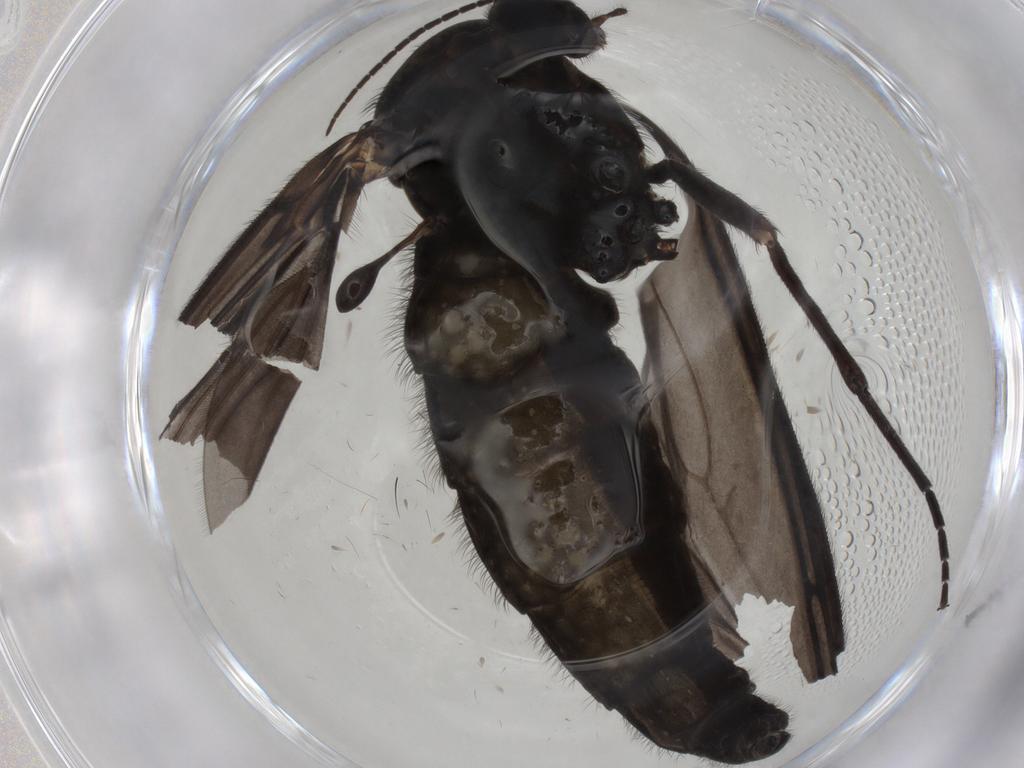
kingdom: Animalia
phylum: Arthropoda
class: Insecta
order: Diptera
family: Chironomidae
